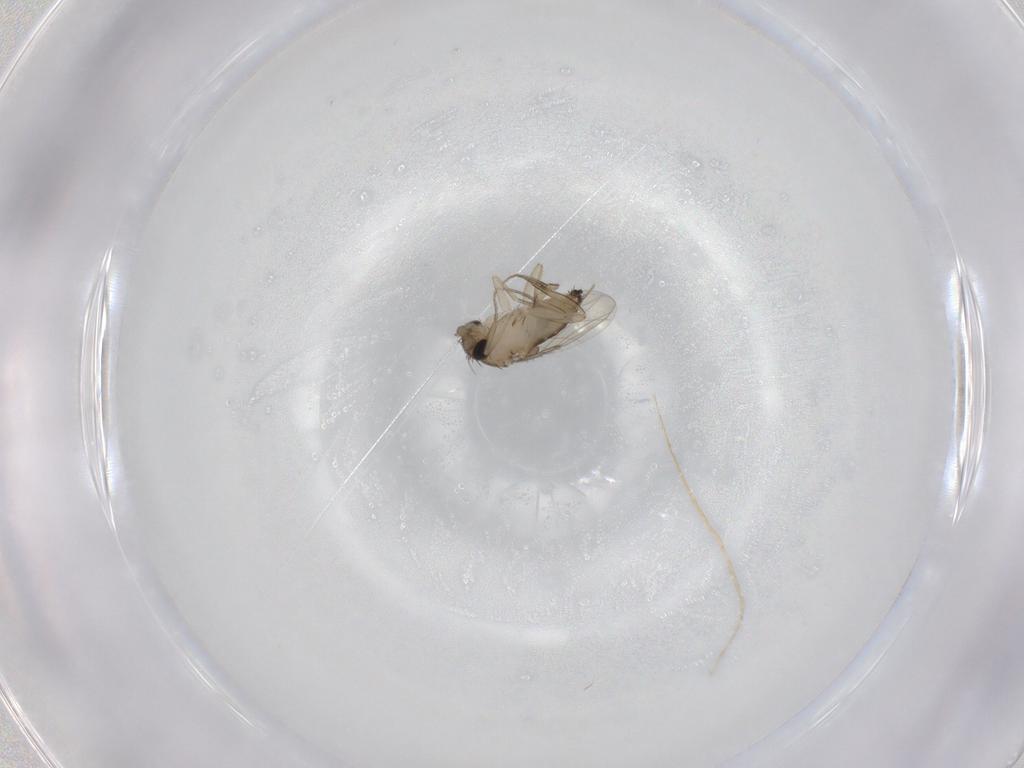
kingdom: Animalia
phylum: Arthropoda
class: Insecta
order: Diptera
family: Phoridae
